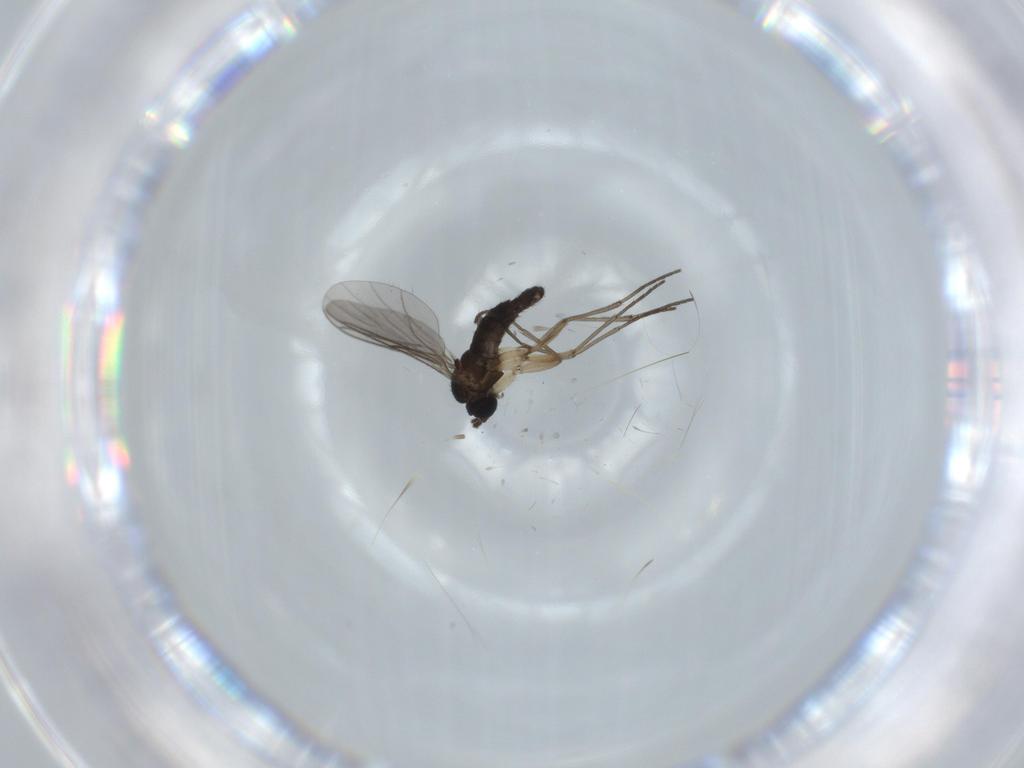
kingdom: Animalia
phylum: Arthropoda
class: Insecta
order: Diptera
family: Sciaridae
